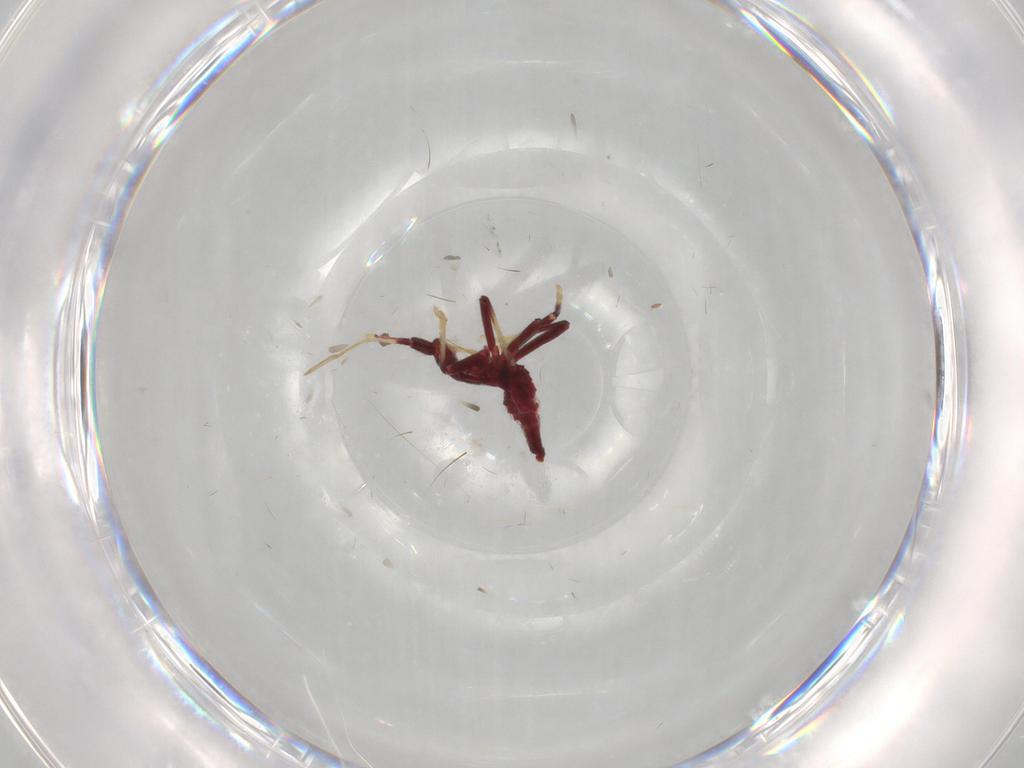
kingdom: Animalia
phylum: Arthropoda
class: Insecta
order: Hemiptera
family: Miridae
